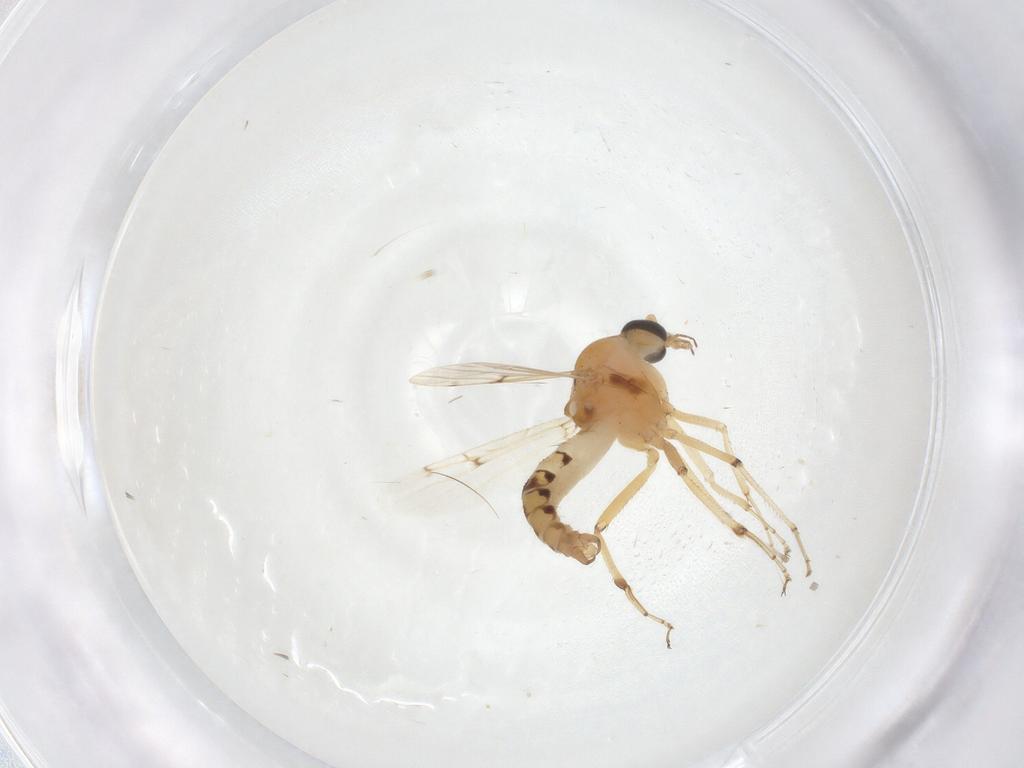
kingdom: Animalia
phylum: Arthropoda
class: Insecta
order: Diptera
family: Ceratopogonidae
